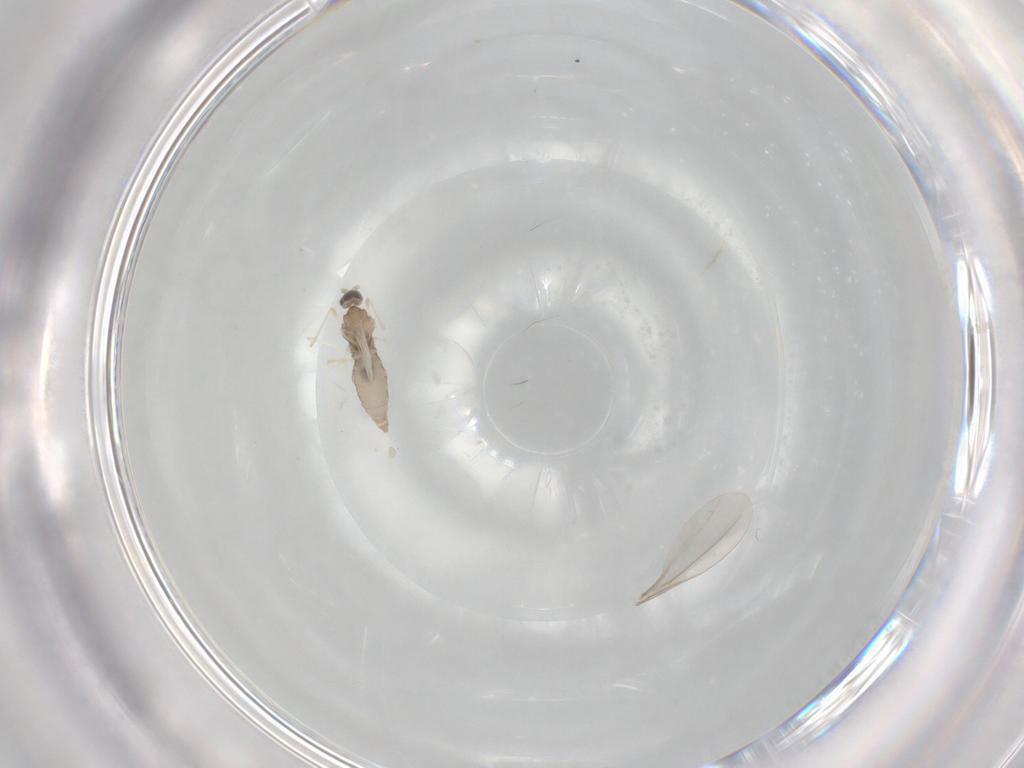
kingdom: Animalia
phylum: Arthropoda
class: Insecta
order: Diptera
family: Cecidomyiidae
